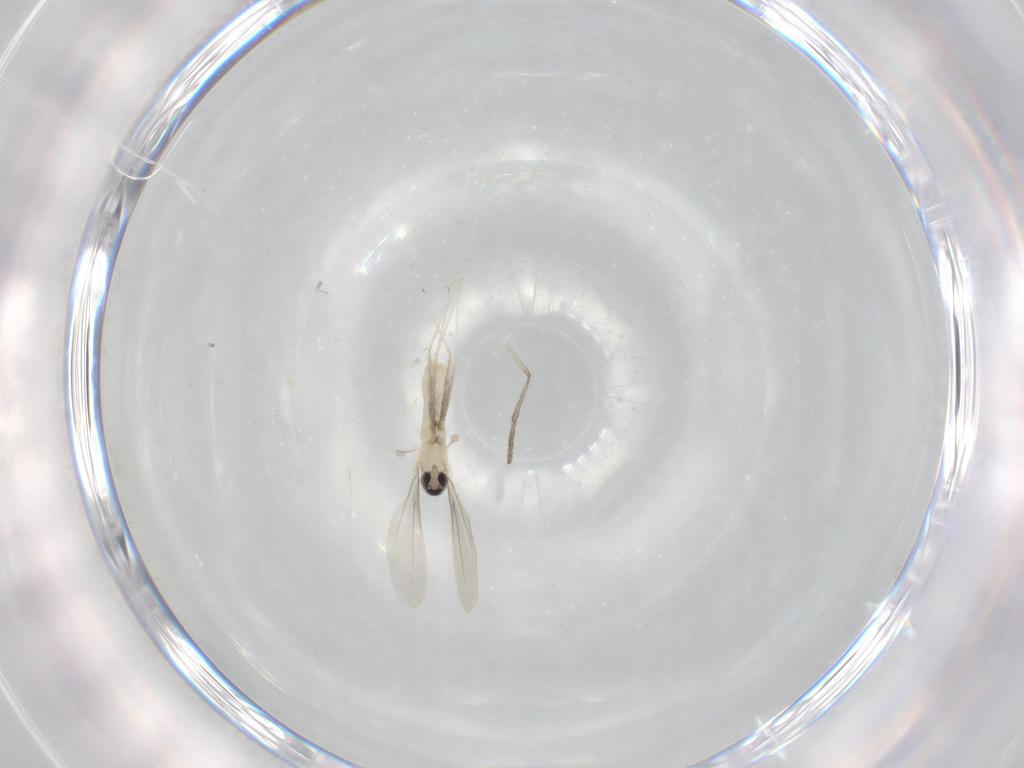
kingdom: Animalia
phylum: Arthropoda
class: Insecta
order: Diptera
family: Cecidomyiidae
